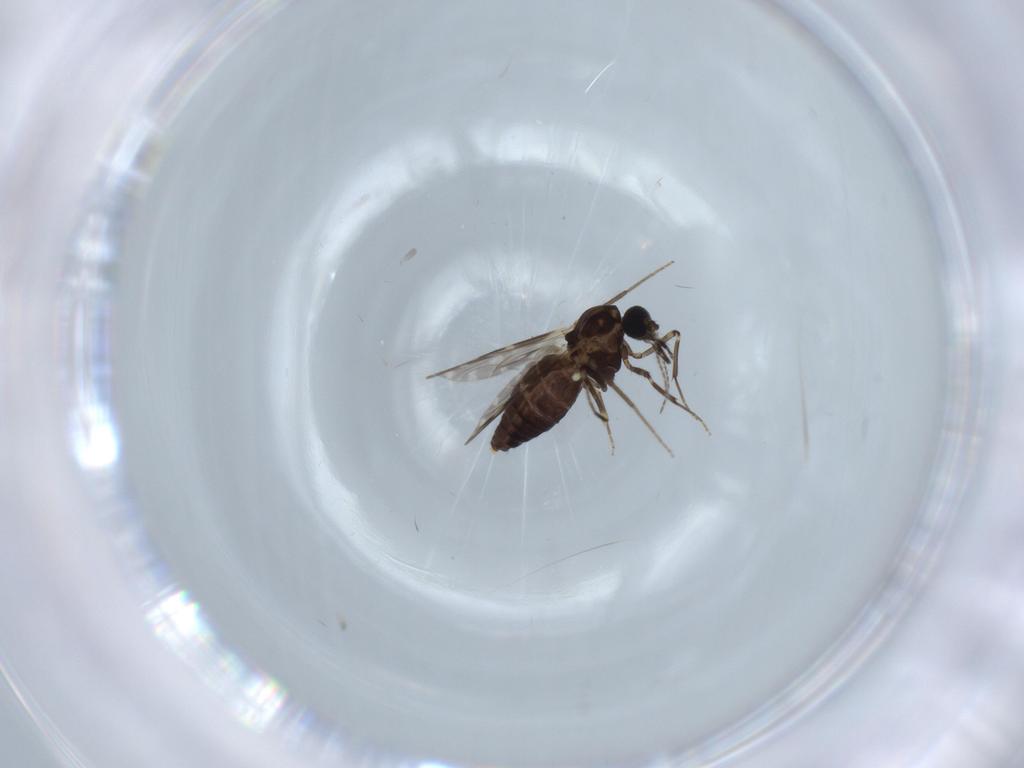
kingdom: Animalia
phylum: Arthropoda
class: Insecta
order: Diptera
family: Ceratopogonidae
